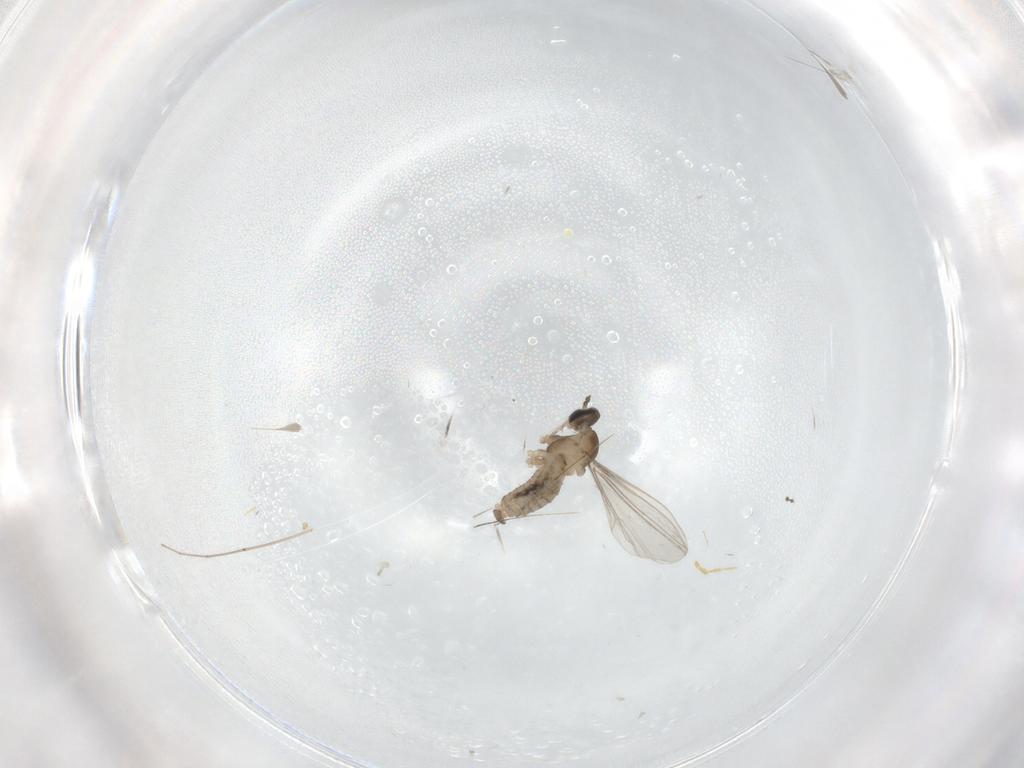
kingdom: Animalia
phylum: Arthropoda
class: Insecta
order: Diptera
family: Cecidomyiidae
